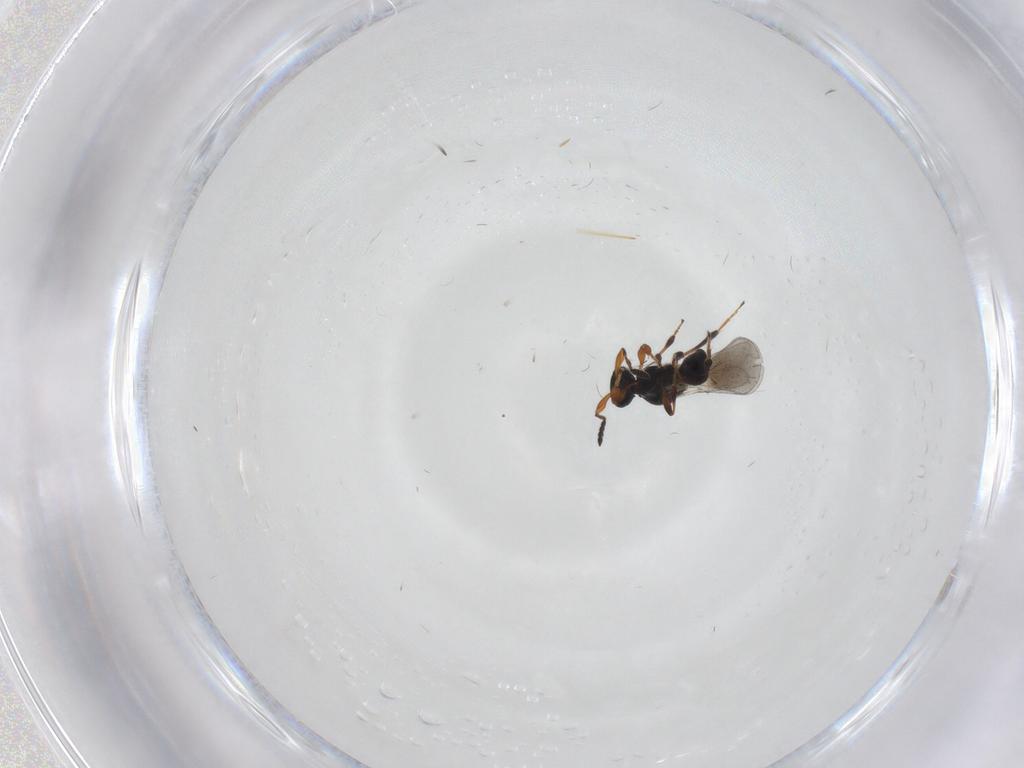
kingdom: Animalia
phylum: Arthropoda
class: Insecta
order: Hymenoptera
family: Platygastridae
